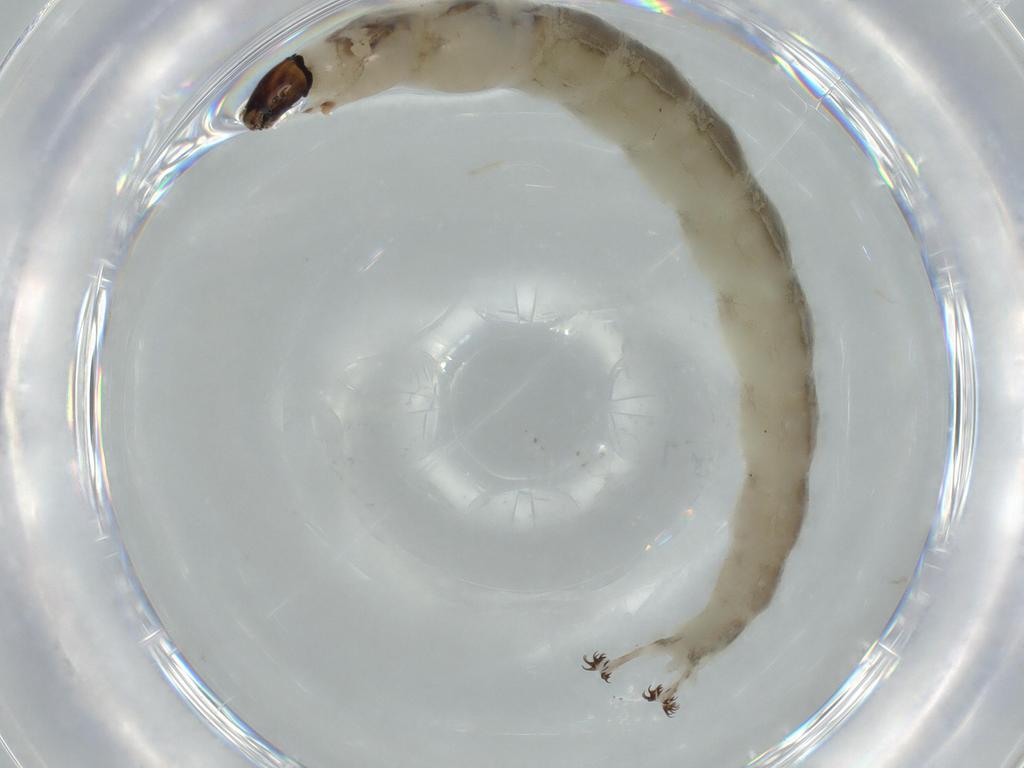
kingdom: Animalia
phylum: Arthropoda
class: Insecta
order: Diptera
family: Chironomidae
